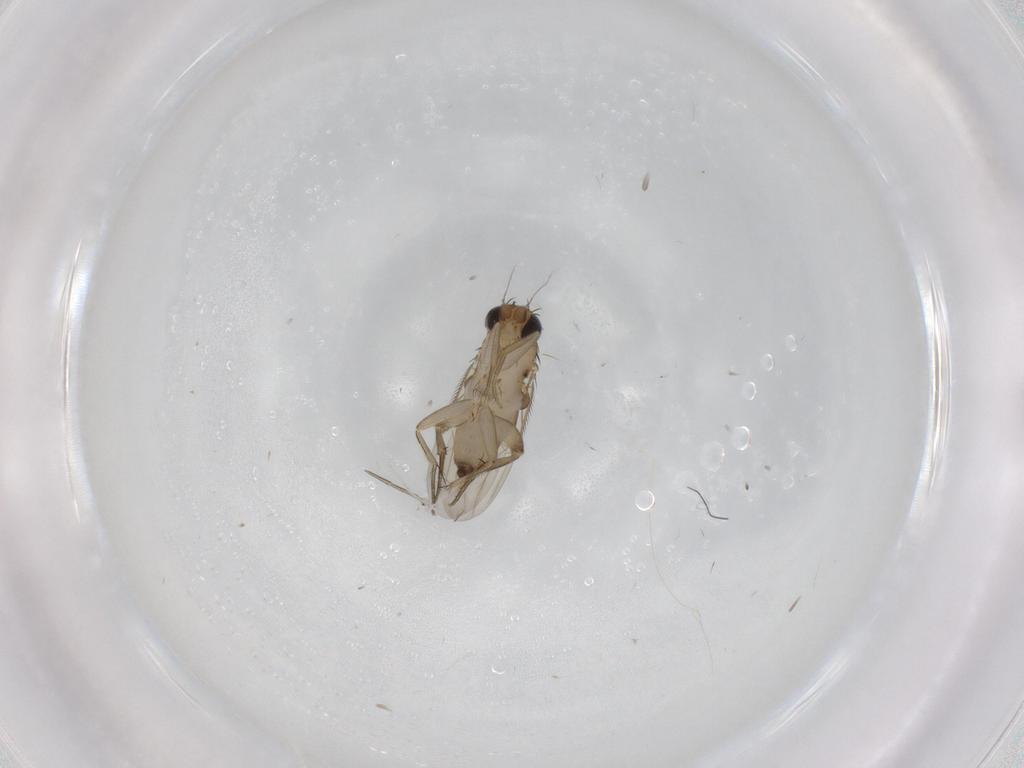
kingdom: Animalia
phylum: Arthropoda
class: Insecta
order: Diptera
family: Phoridae
